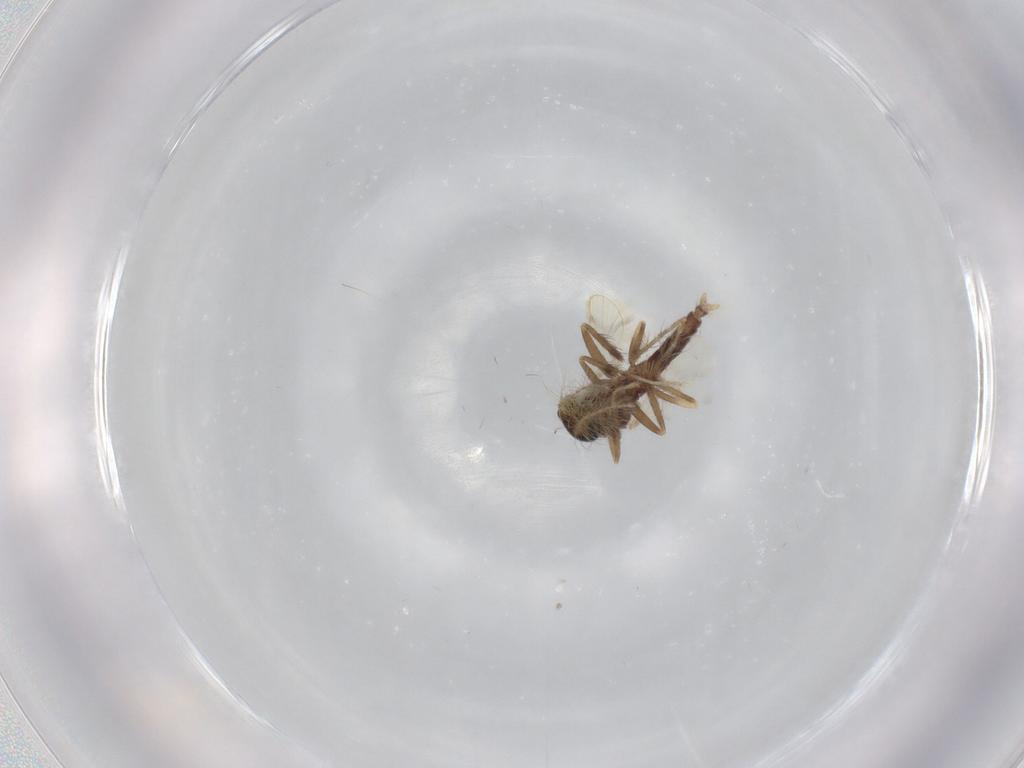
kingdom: Animalia
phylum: Arthropoda
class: Insecta
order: Diptera
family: Corethrellidae
